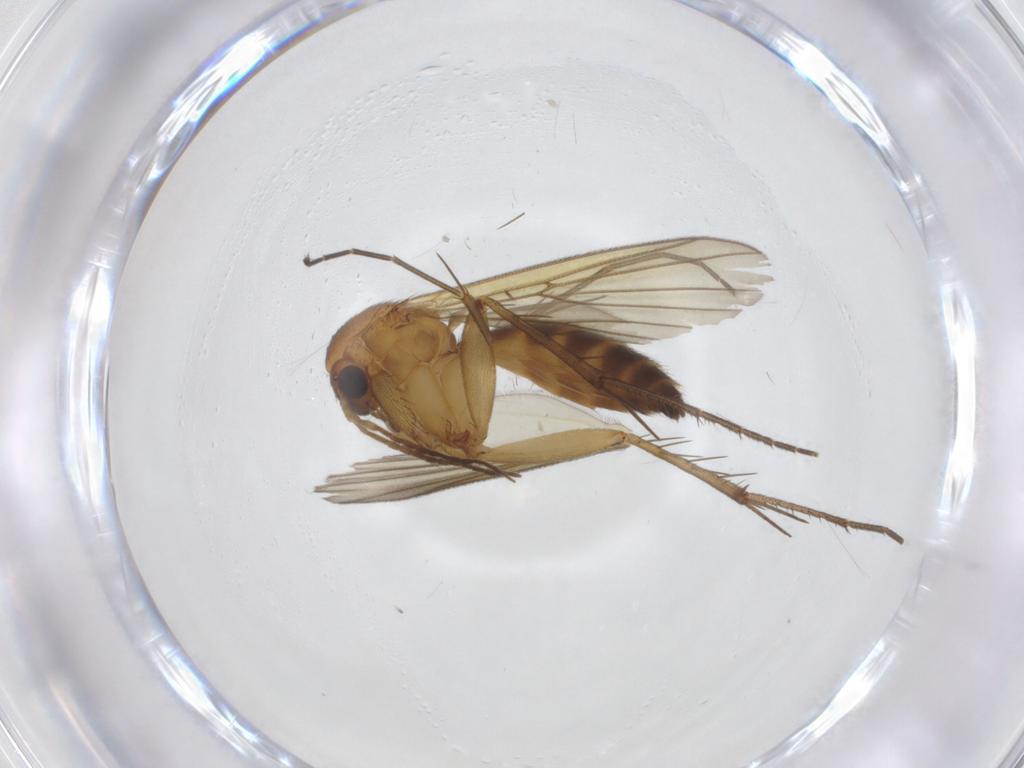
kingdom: Animalia
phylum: Arthropoda
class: Insecta
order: Diptera
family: Mycetophilidae
